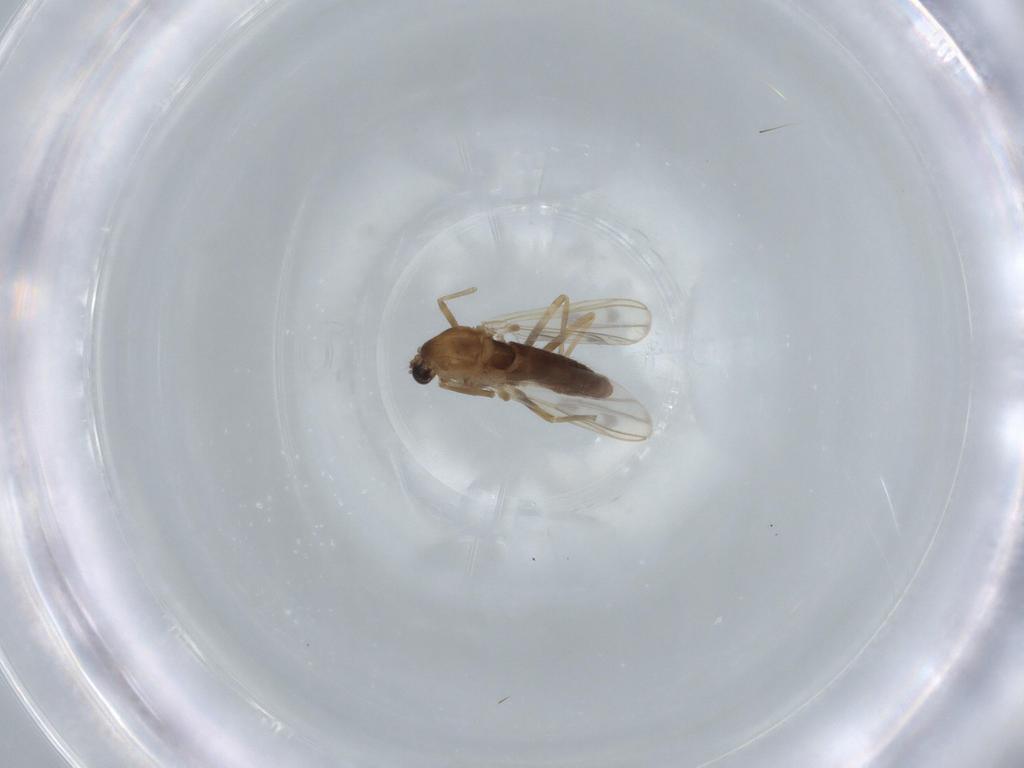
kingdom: Animalia
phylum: Arthropoda
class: Insecta
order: Diptera
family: Chironomidae
